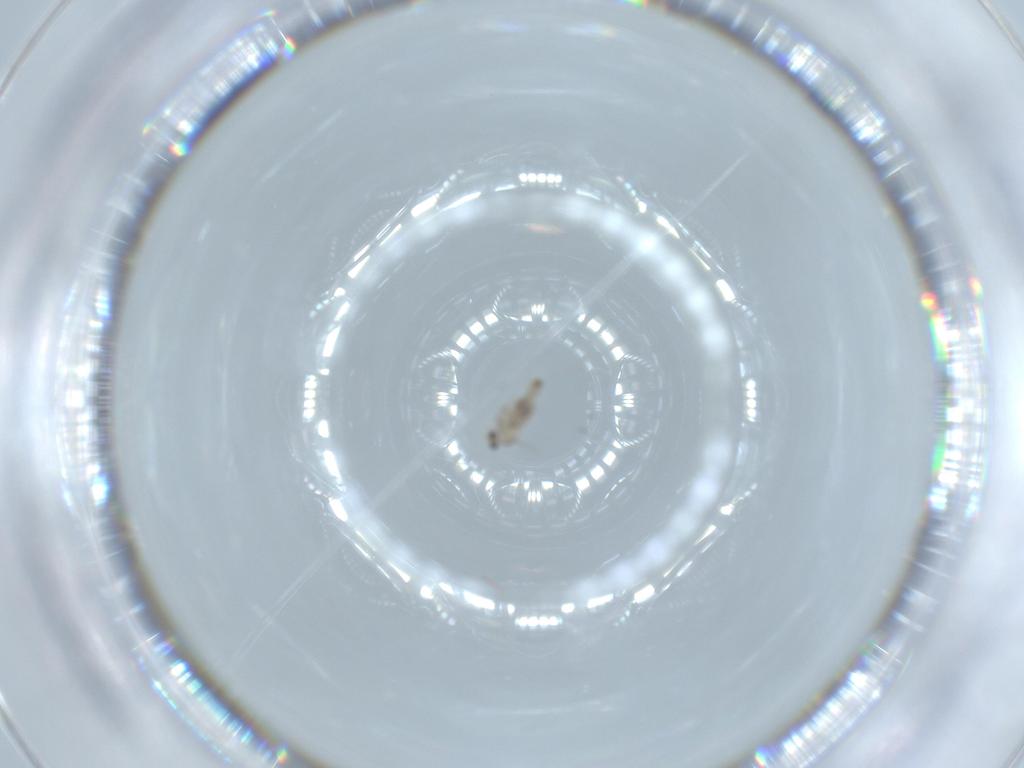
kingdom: Animalia
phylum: Arthropoda
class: Insecta
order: Diptera
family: Cecidomyiidae
